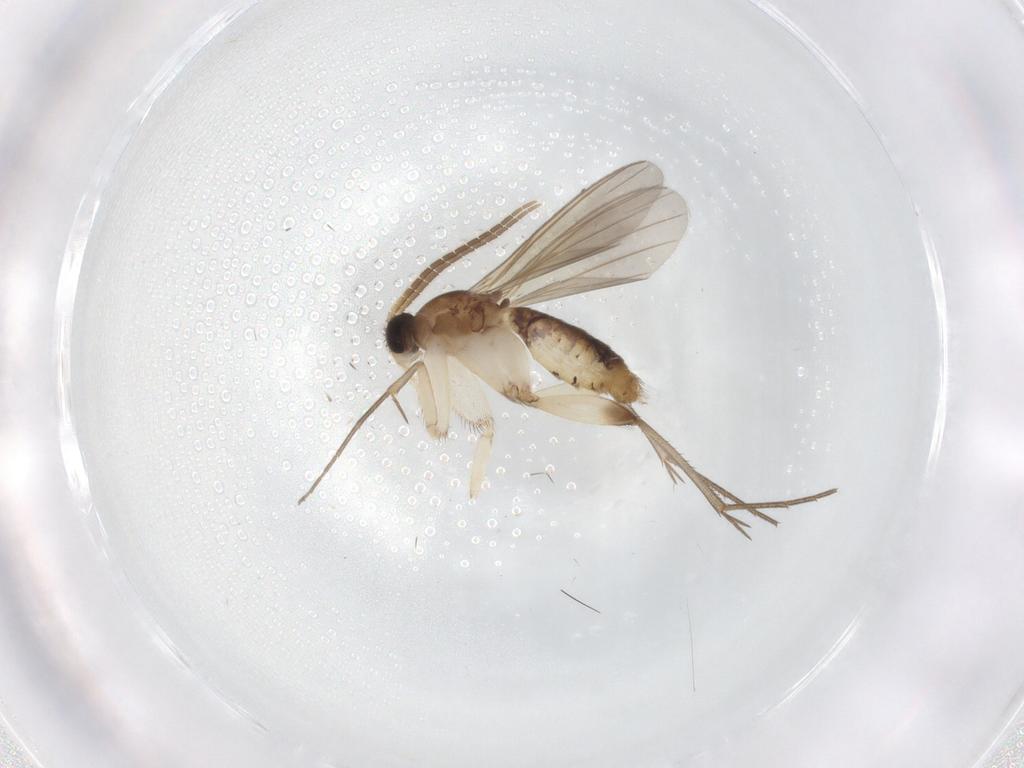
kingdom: Animalia
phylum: Arthropoda
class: Insecta
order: Diptera
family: Mycetophilidae
